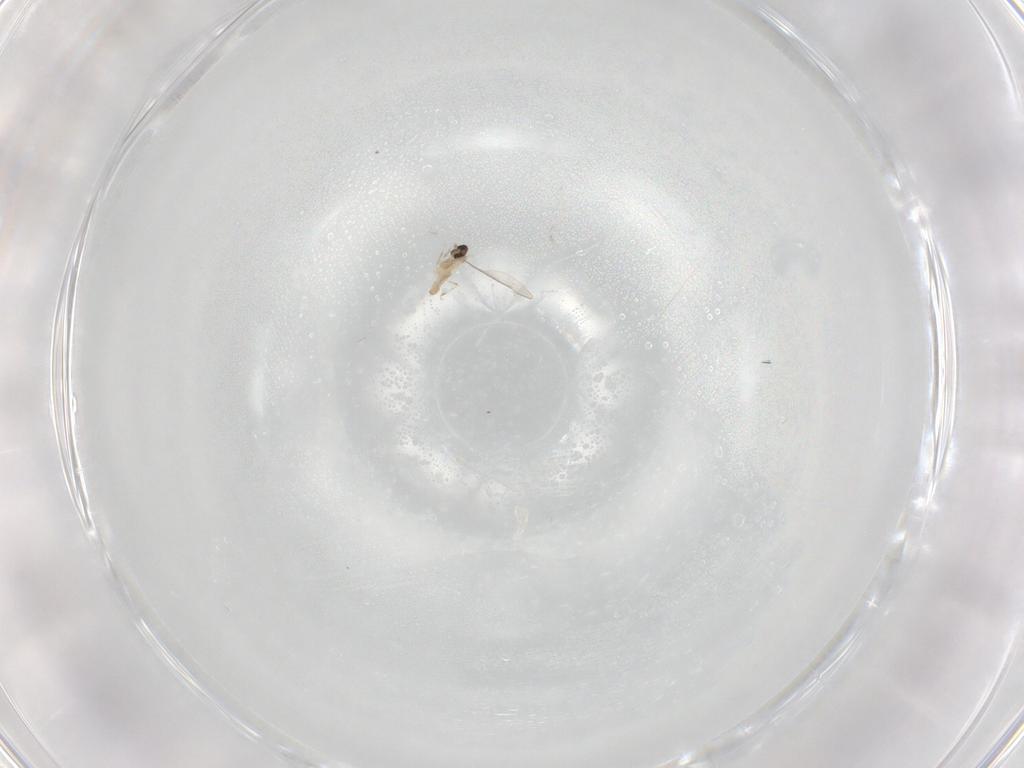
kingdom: Animalia
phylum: Arthropoda
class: Insecta
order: Diptera
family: Cecidomyiidae
